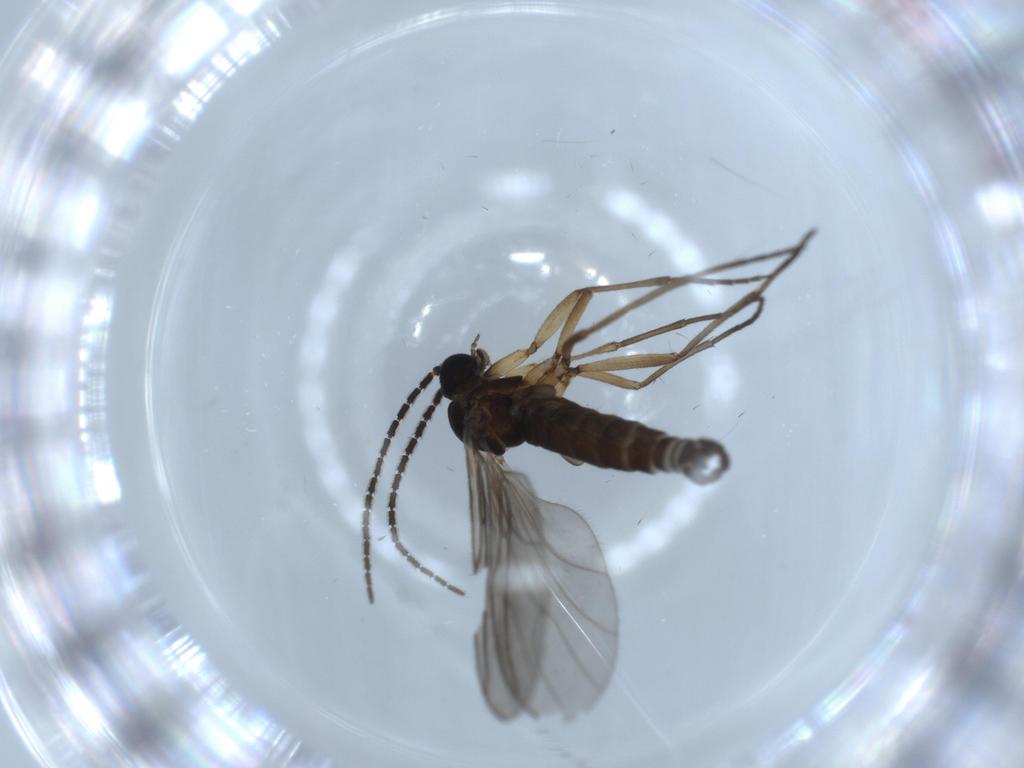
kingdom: Animalia
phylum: Arthropoda
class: Insecta
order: Diptera
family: Sciaridae
